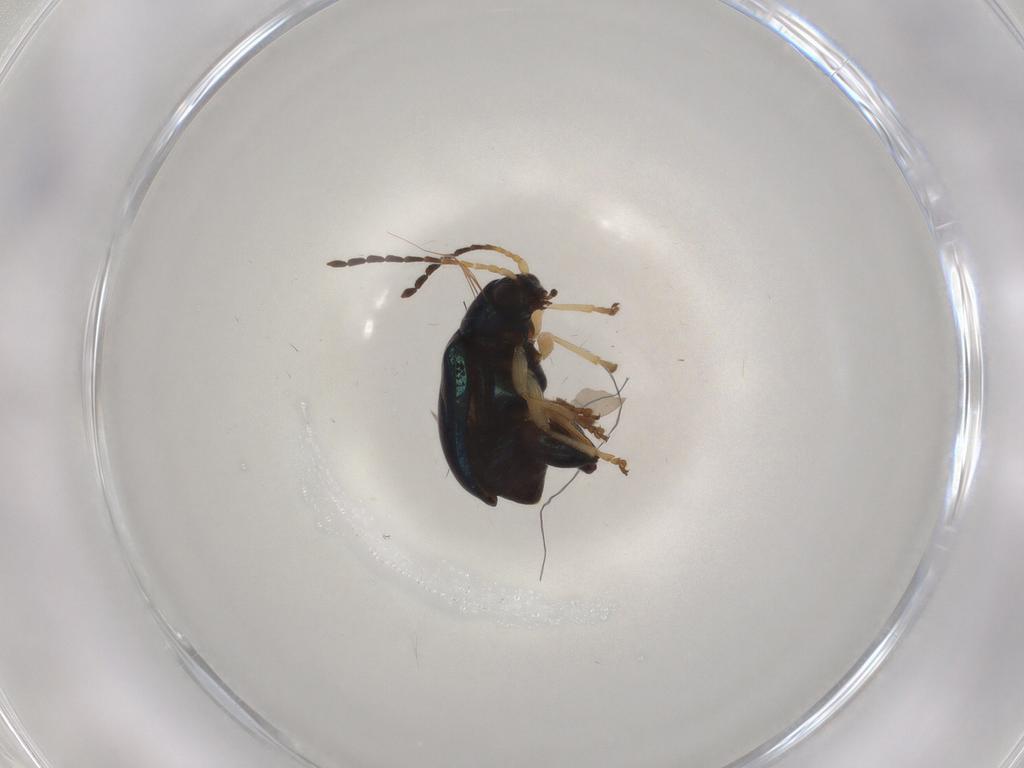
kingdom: Animalia
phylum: Arthropoda
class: Insecta
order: Coleoptera
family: Chrysomelidae
